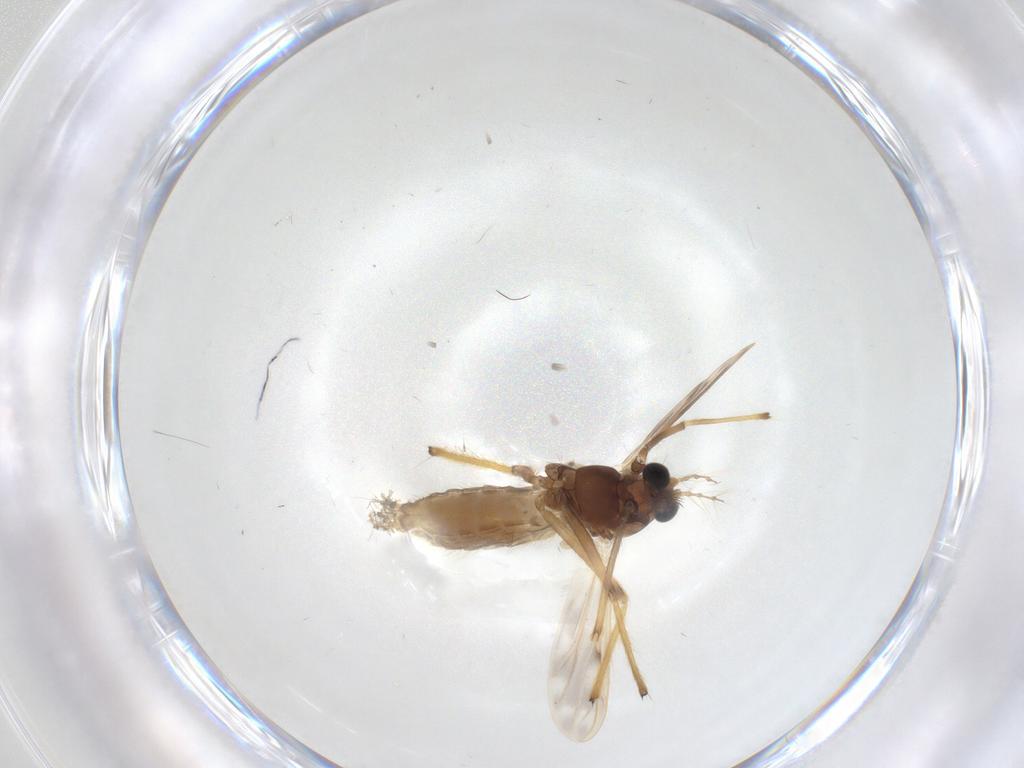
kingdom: Animalia
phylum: Arthropoda
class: Insecta
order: Diptera
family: Chironomidae
